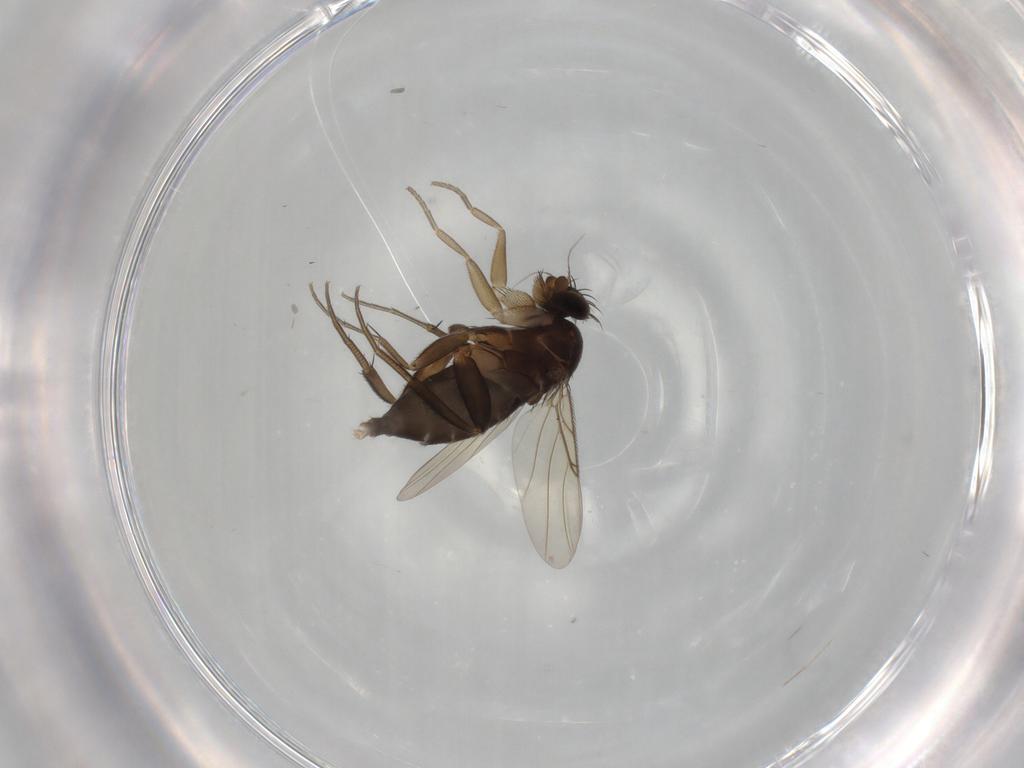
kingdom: Animalia
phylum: Arthropoda
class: Insecta
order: Diptera
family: Phoridae
